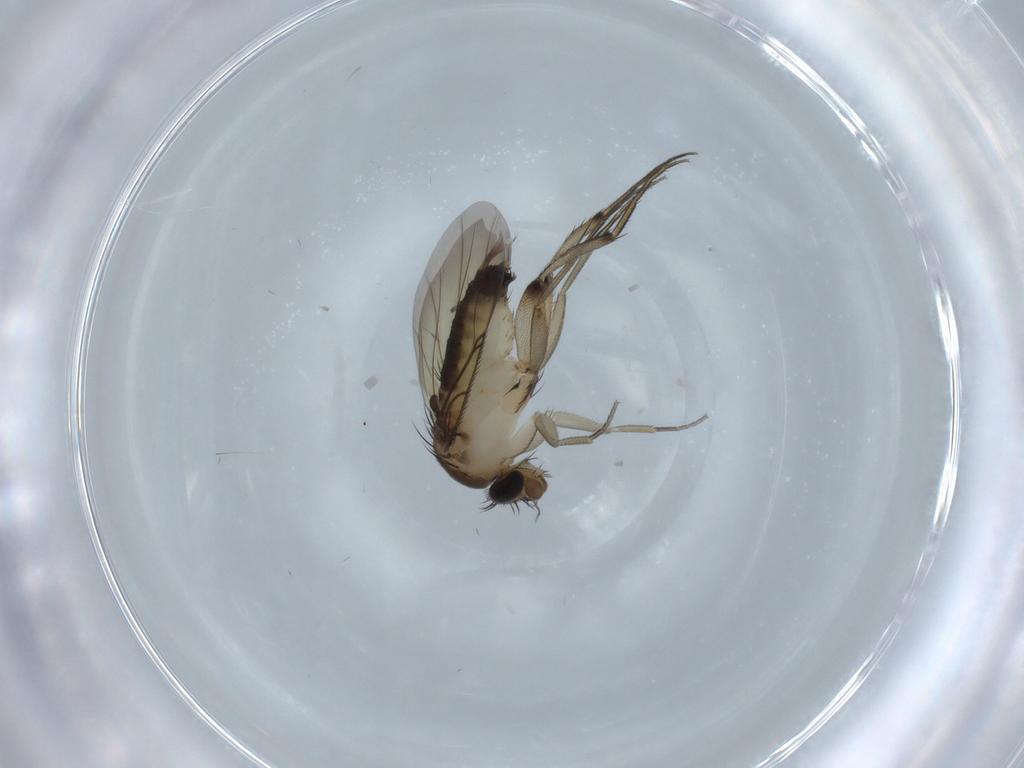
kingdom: Animalia
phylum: Arthropoda
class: Insecta
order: Diptera
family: Phoridae
